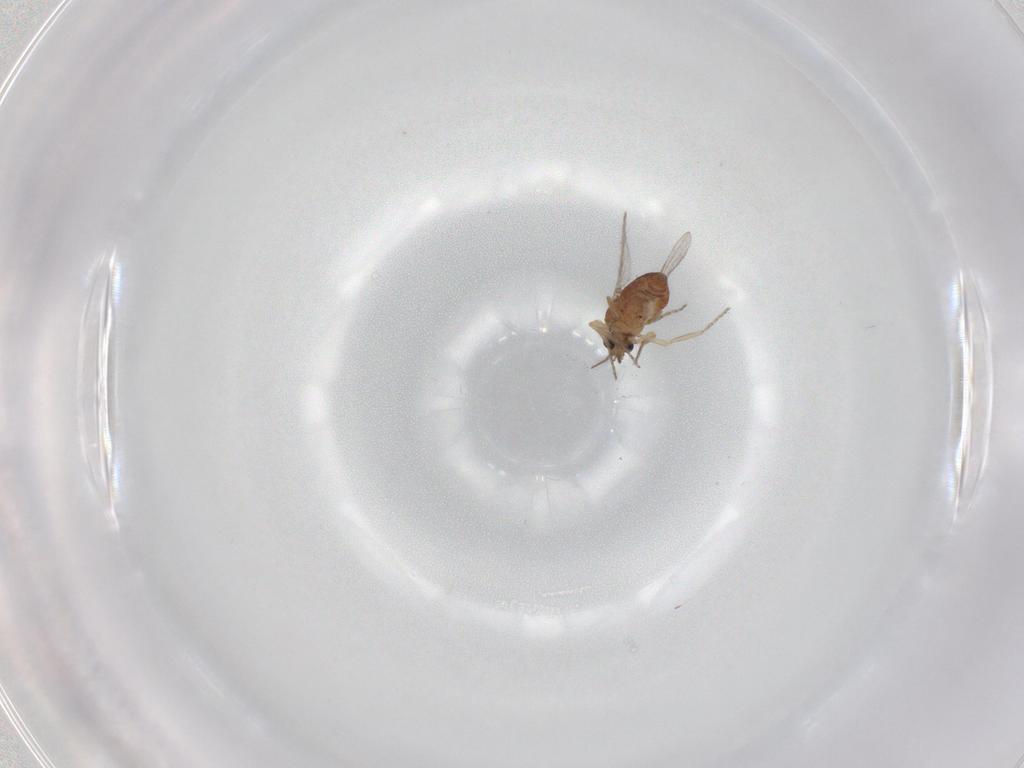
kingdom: Animalia
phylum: Arthropoda
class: Insecta
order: Diptera
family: Ceratopogonidae
